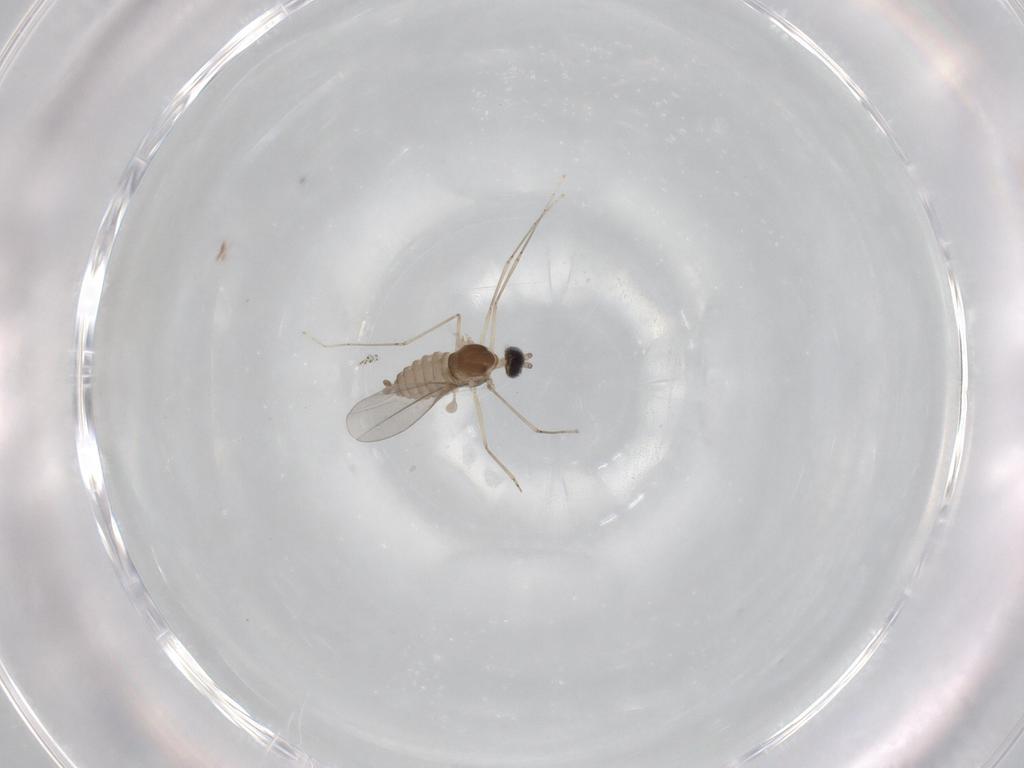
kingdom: Animalia
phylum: Arthropoda
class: Insecta
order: Diptera
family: Cecidomyiidae
